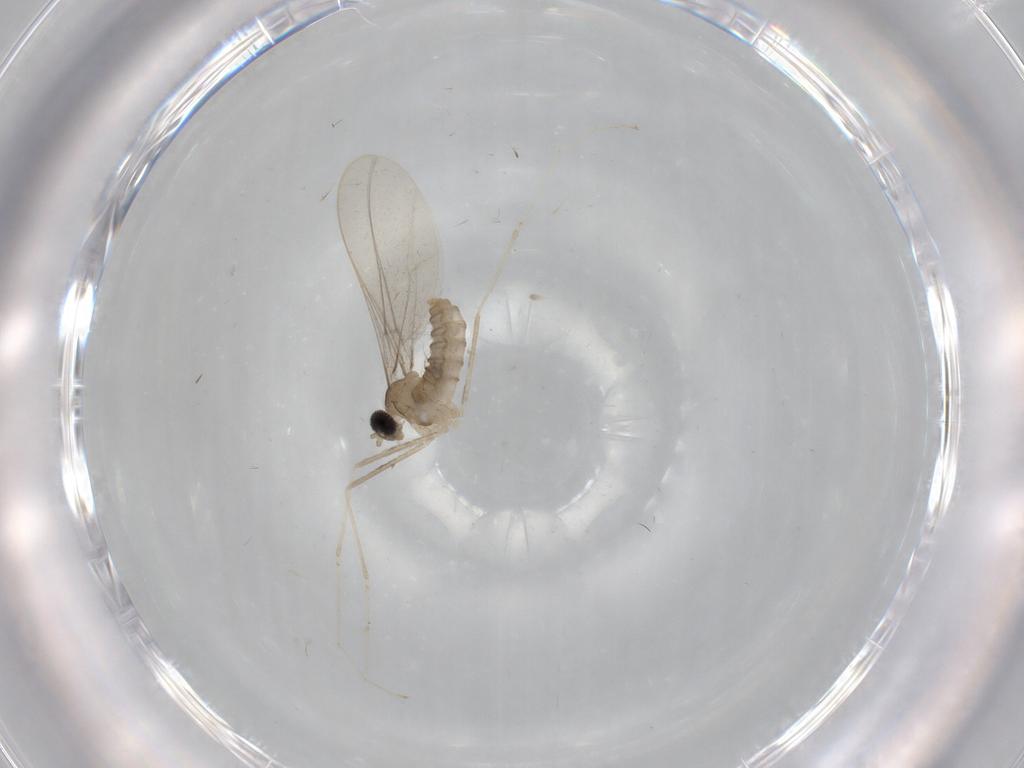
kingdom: Animalia
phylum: Arthropoda
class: Insecta
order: Diptera
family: Cecidomyiidae
